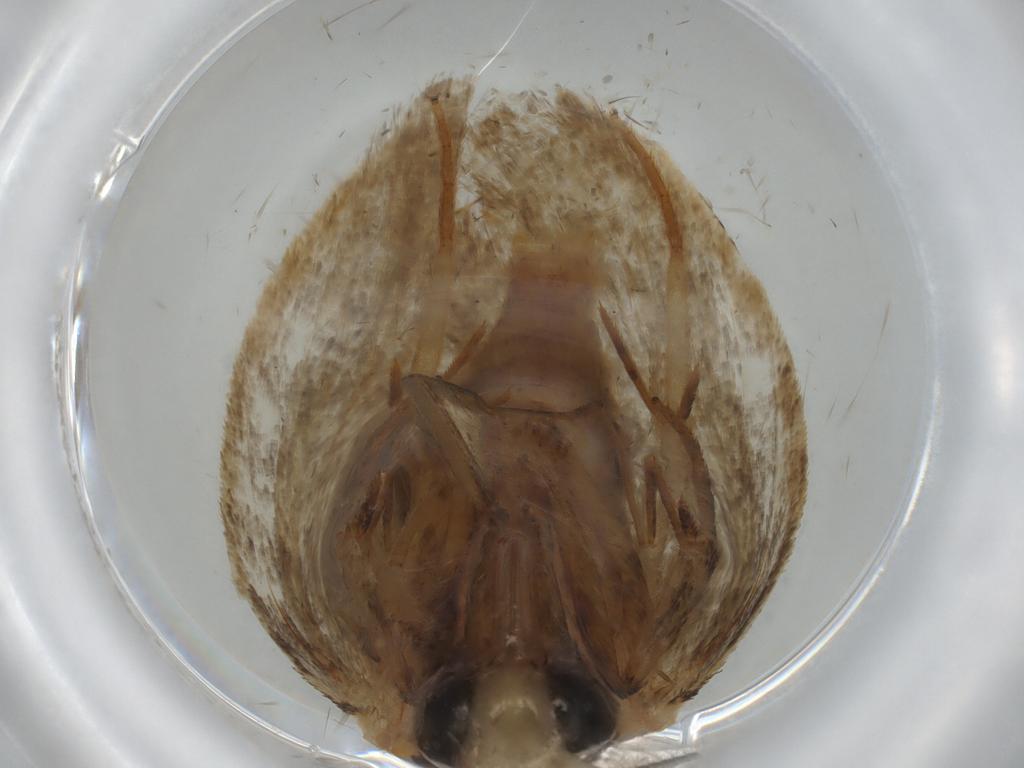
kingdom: Animalia
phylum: Arthropoda
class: Insecta
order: Lepidoptera
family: Oecophoridae
